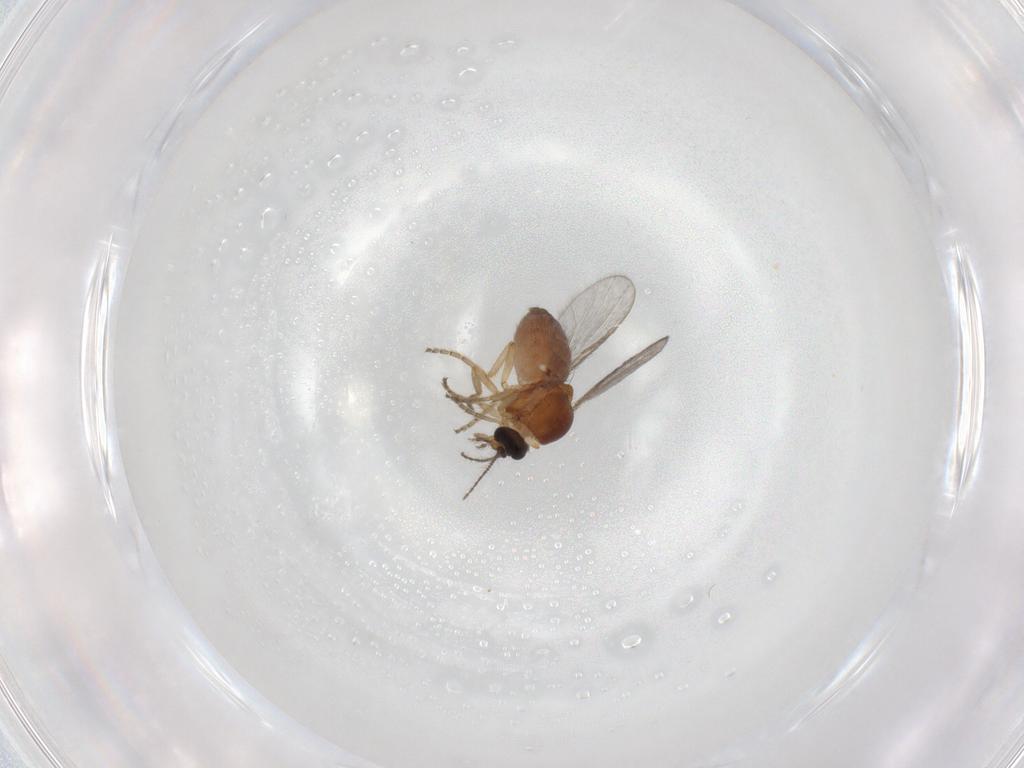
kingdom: Animalia
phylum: Arthropoda
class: Insecta
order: Diptera
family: Ceratopogonidae
